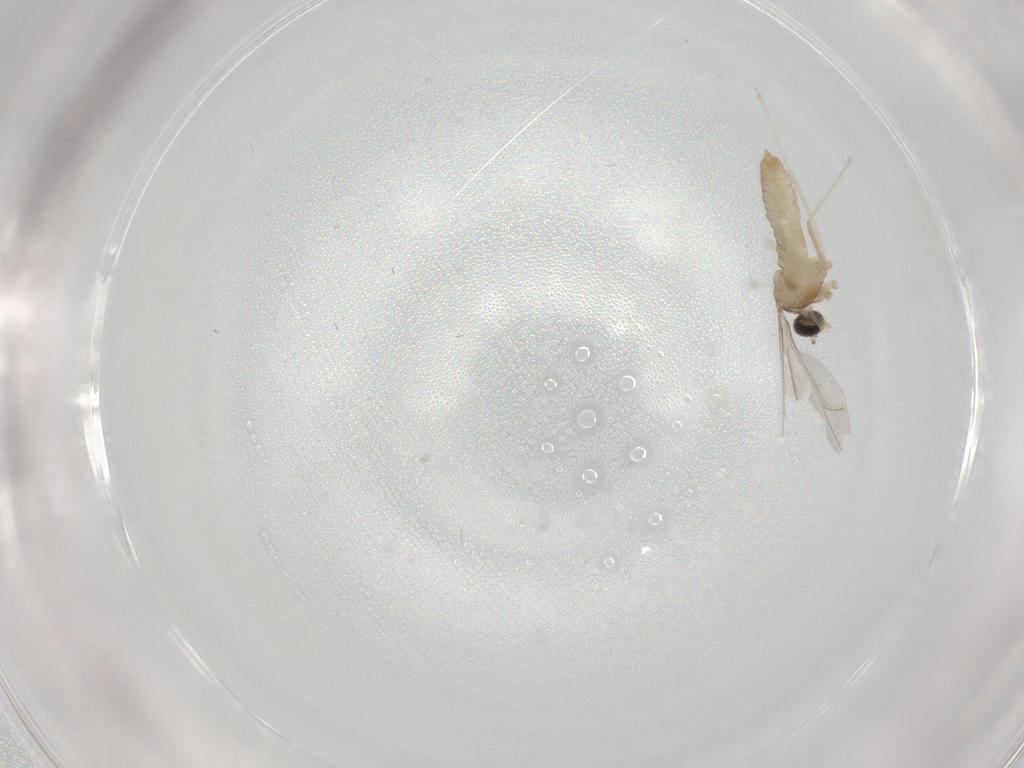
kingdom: Animalia
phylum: Arthropoda
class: Insecta
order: Diptera
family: Cecidomyiidae
